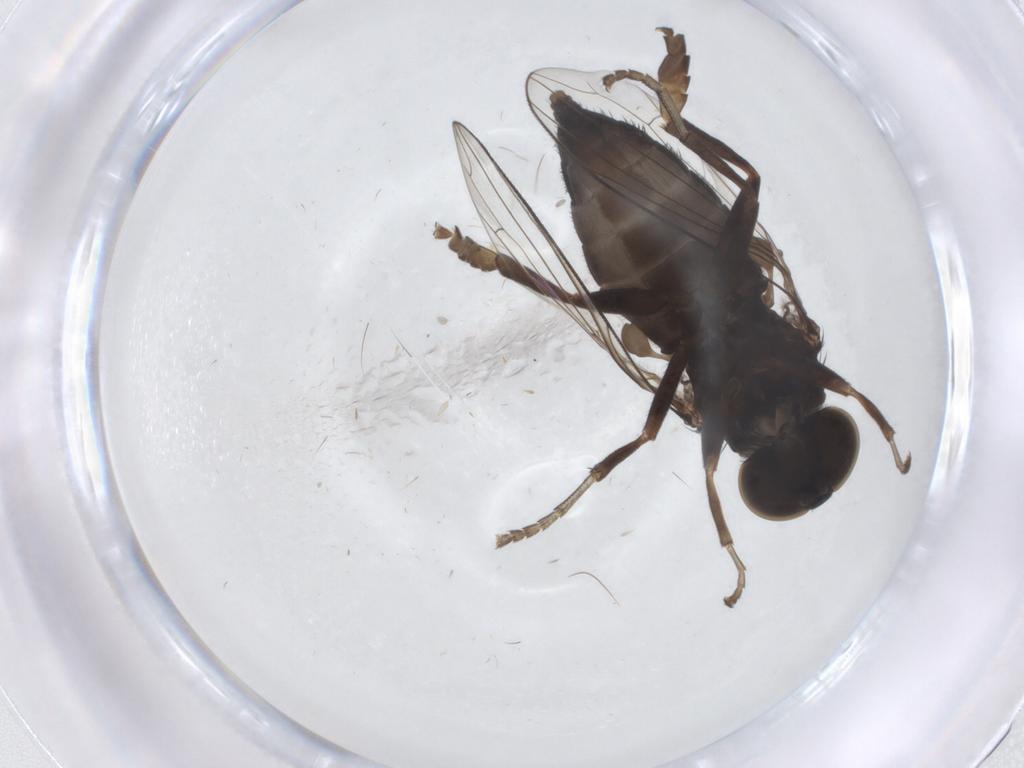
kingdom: Animalia
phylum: Arthropoda
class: Insecta
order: Diptera
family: Platypezidae
